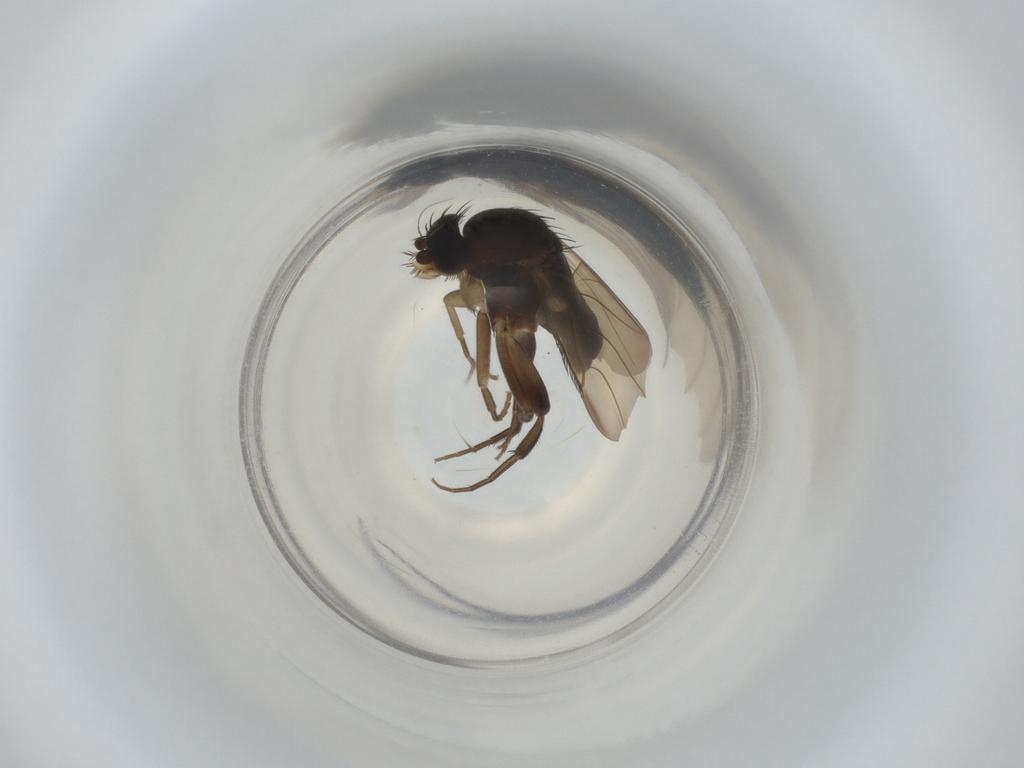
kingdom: Animalia
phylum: Arthropoda
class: Insecta
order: Diptera
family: Phoridae
